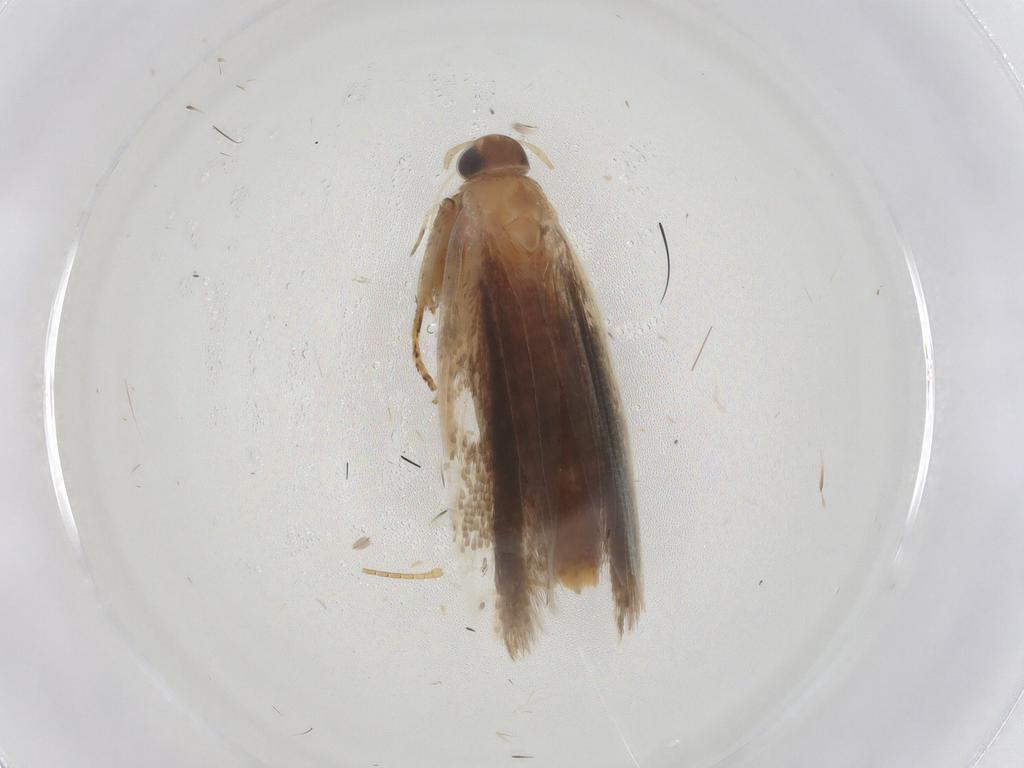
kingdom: Animalia
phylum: Arthropoda
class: Insecta
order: Lepidoptera
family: Gelechiidae
